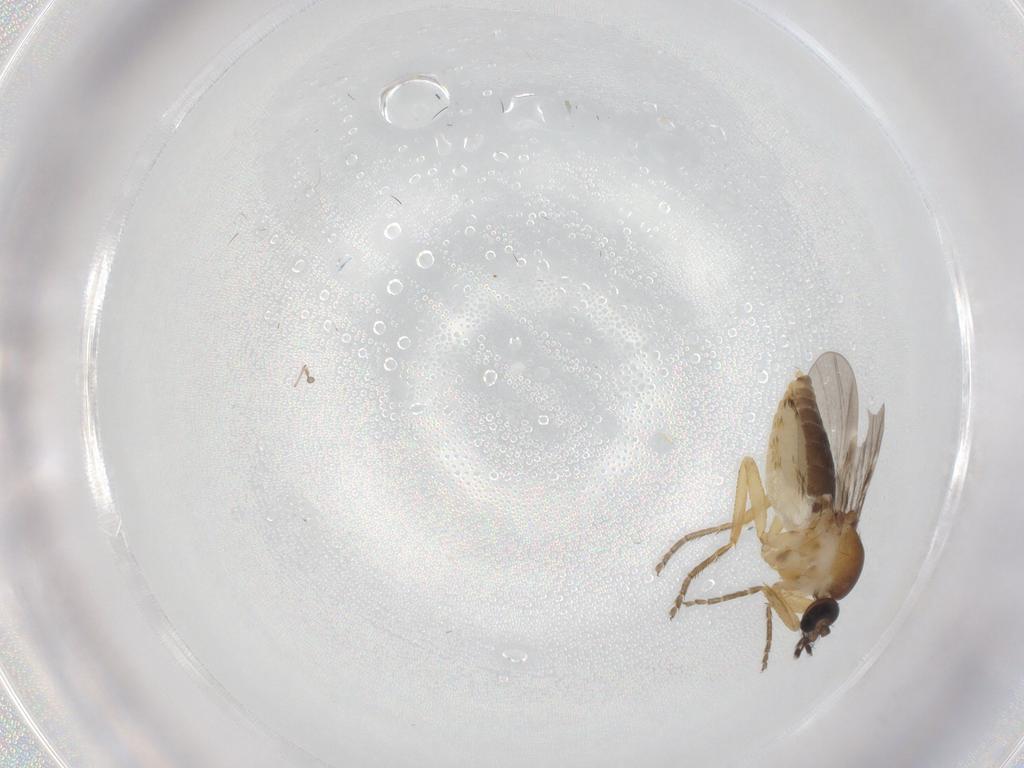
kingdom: Animalia
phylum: Arthropoda
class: Insecta
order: Diptera
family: Ceratopogonidae
